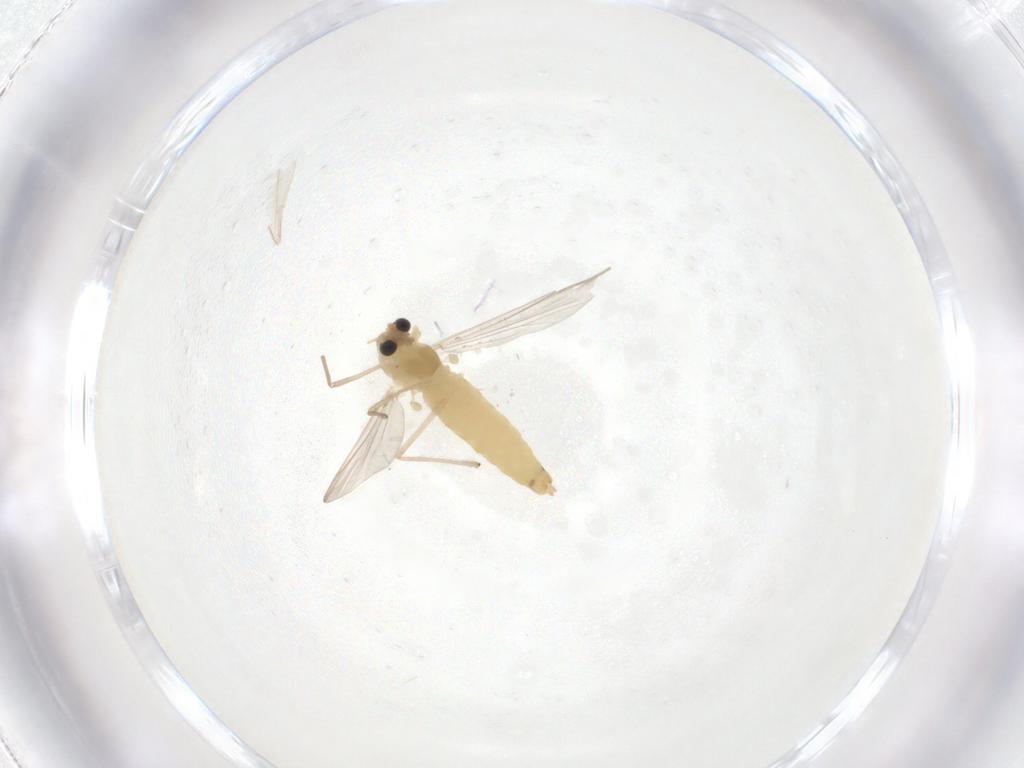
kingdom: Animalia
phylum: Arthropoda
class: Insecta
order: Diptera
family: Chironomidae
